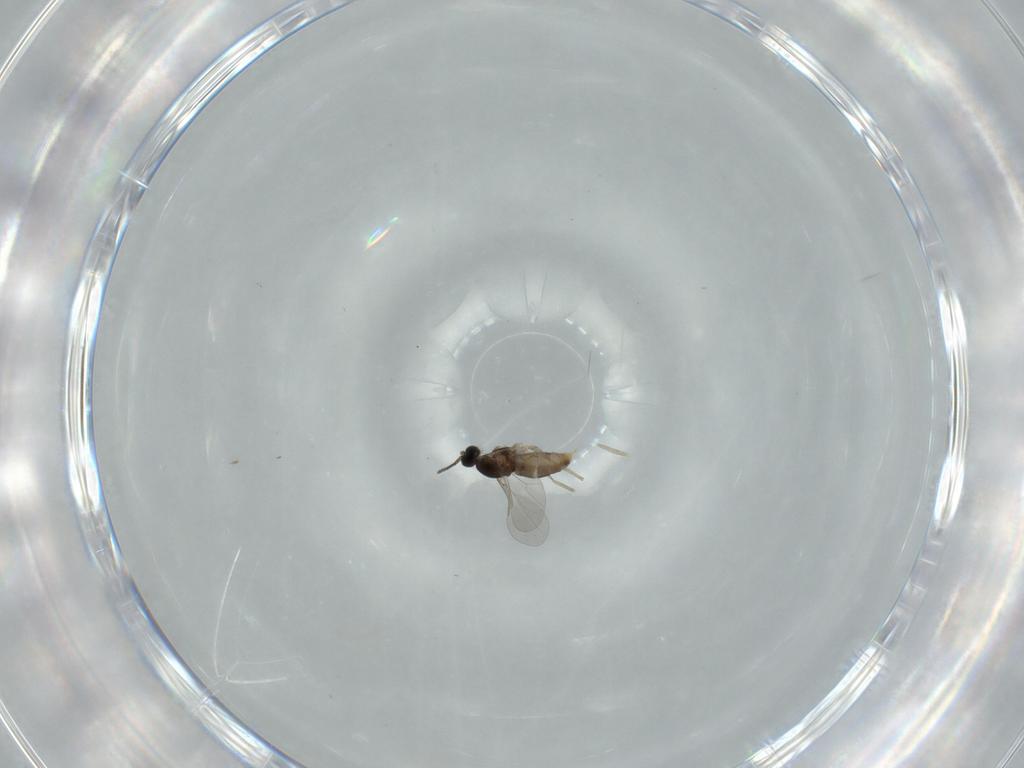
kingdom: Animalia
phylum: Arthropoda
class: Insecta
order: Diptera
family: Cecidomyiidae
